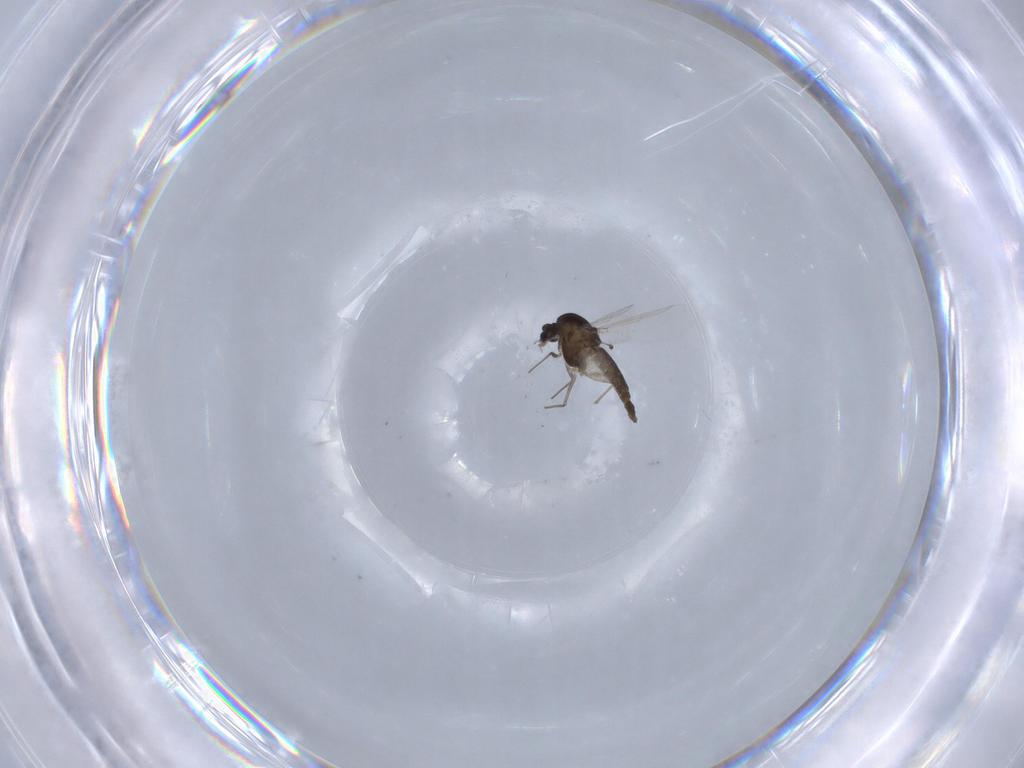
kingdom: Animalia
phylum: Arthropoda
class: Insecta
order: Diptera
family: Chironomidae
